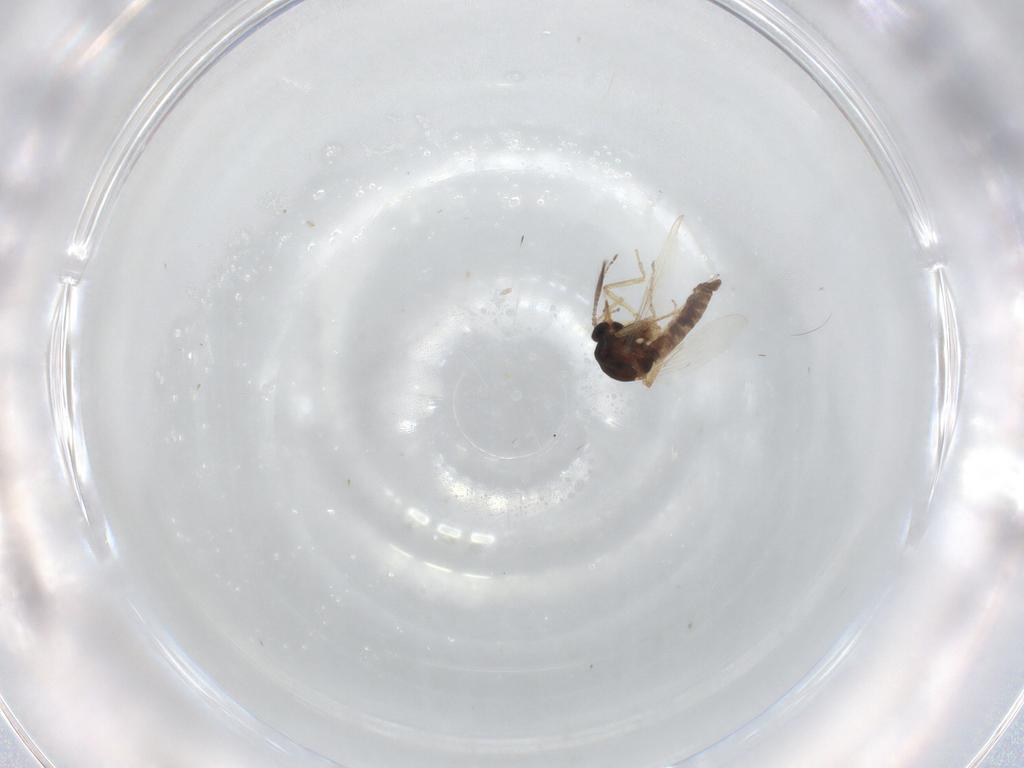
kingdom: Animalia
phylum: Arthropoda
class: Insecta
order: Diptera
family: Ceratopogonidae
